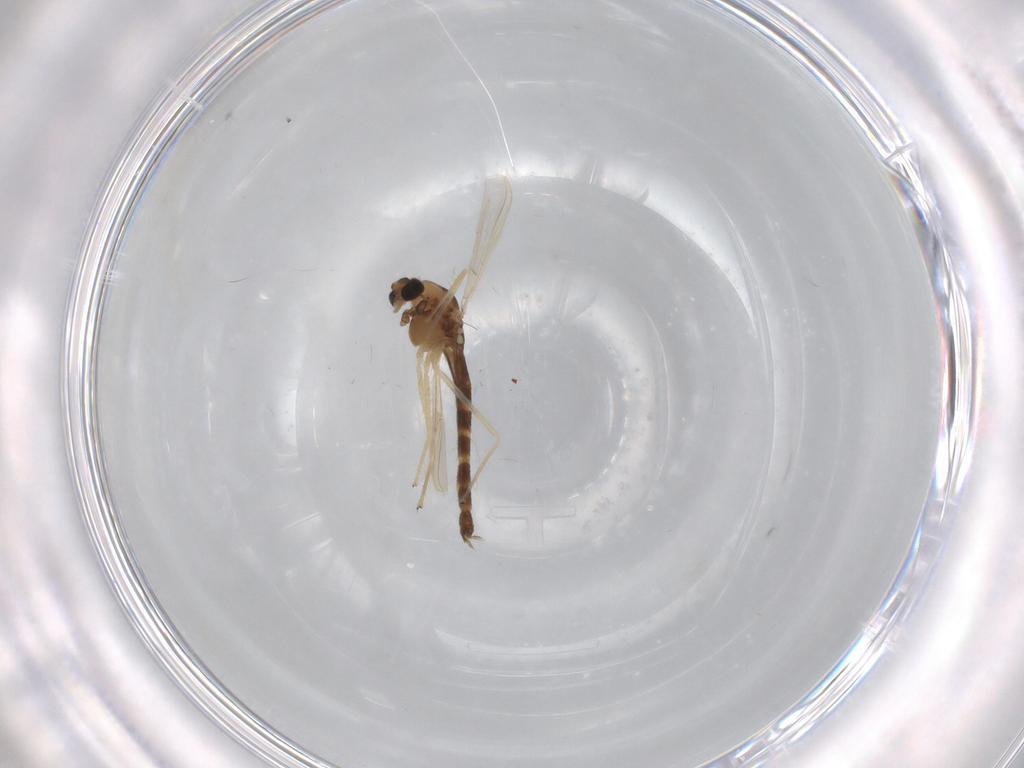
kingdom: Animalia
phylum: Arthropoda
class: Insecta
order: Diptera
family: Chironomidae
